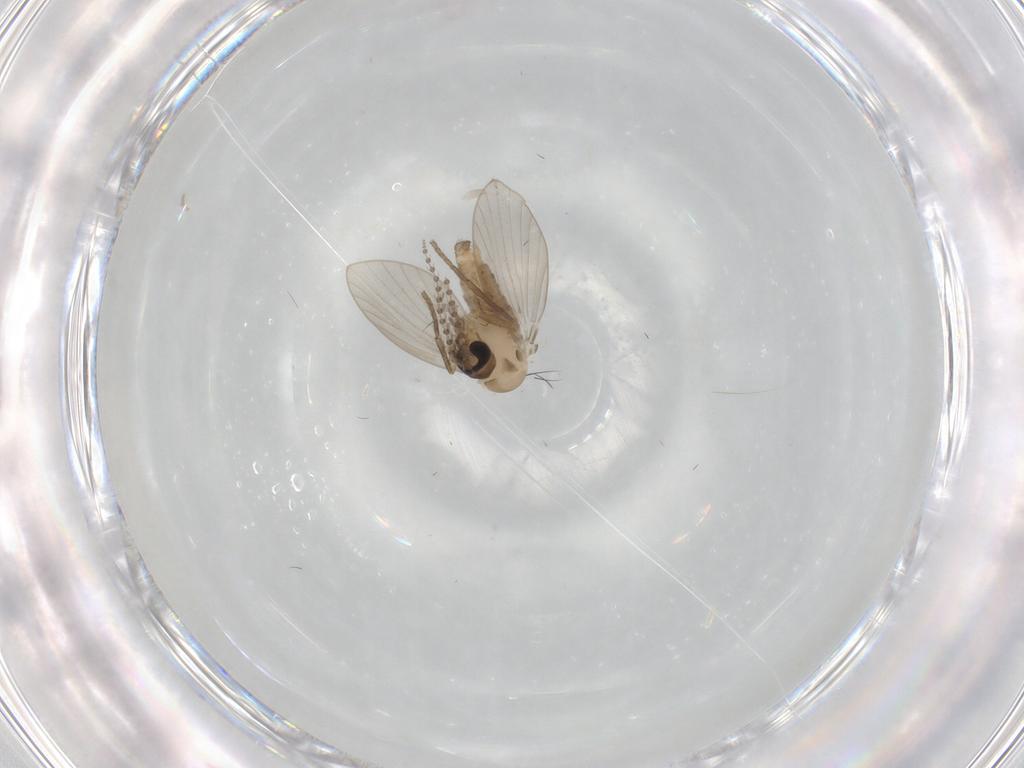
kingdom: Animalia
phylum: Arthropoda
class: Insecta
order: Diptera
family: Psychodidae
